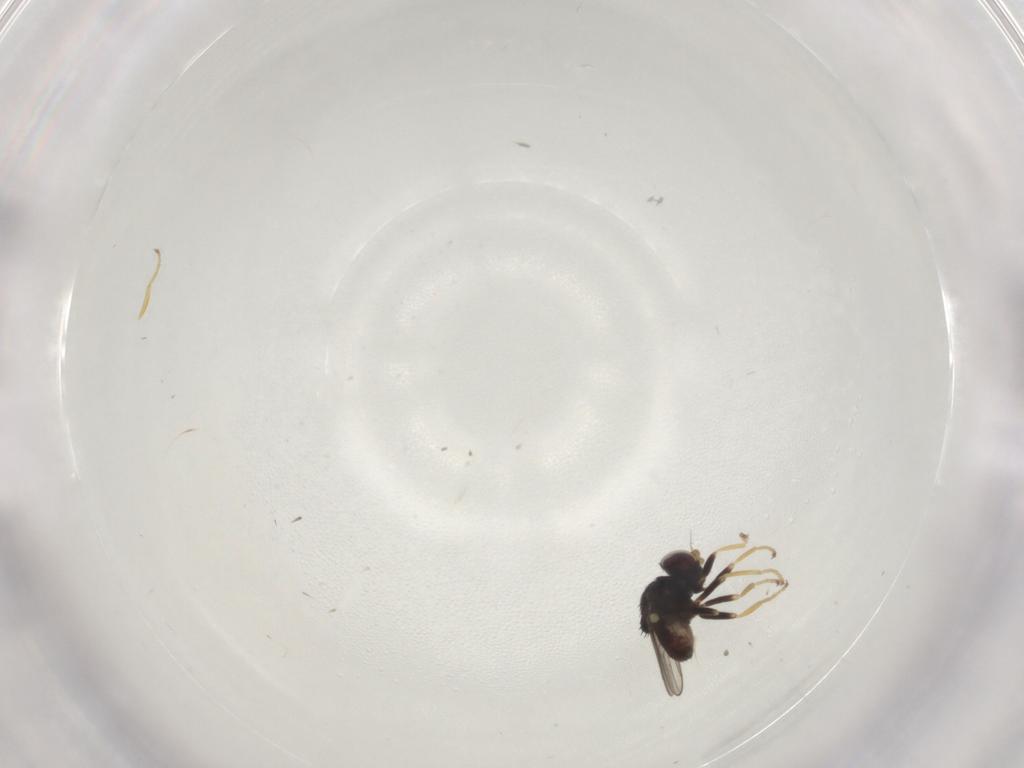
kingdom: Animalia
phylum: Arthropoda
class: Insecta
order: Diptera
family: Chloropidae
